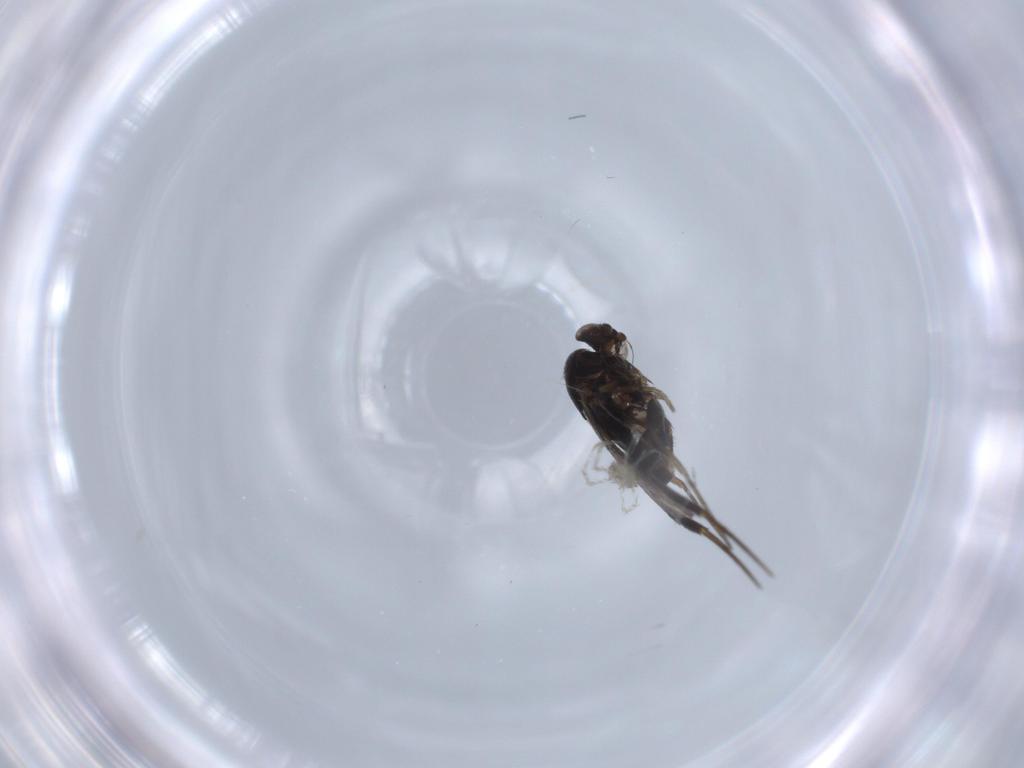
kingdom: Animalia
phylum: Arthropoda
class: Insecta
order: Diptera
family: Phoridae
